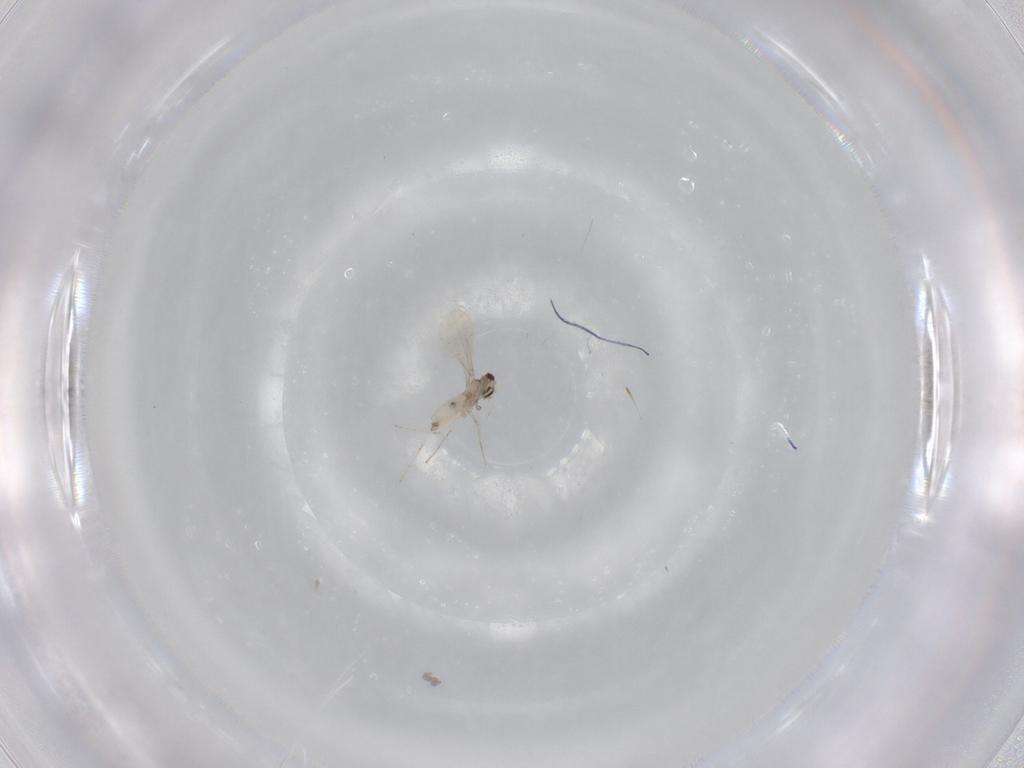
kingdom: Animalia
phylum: Arthropoda
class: Insecta
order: Diptera
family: Cecidomyiidae
